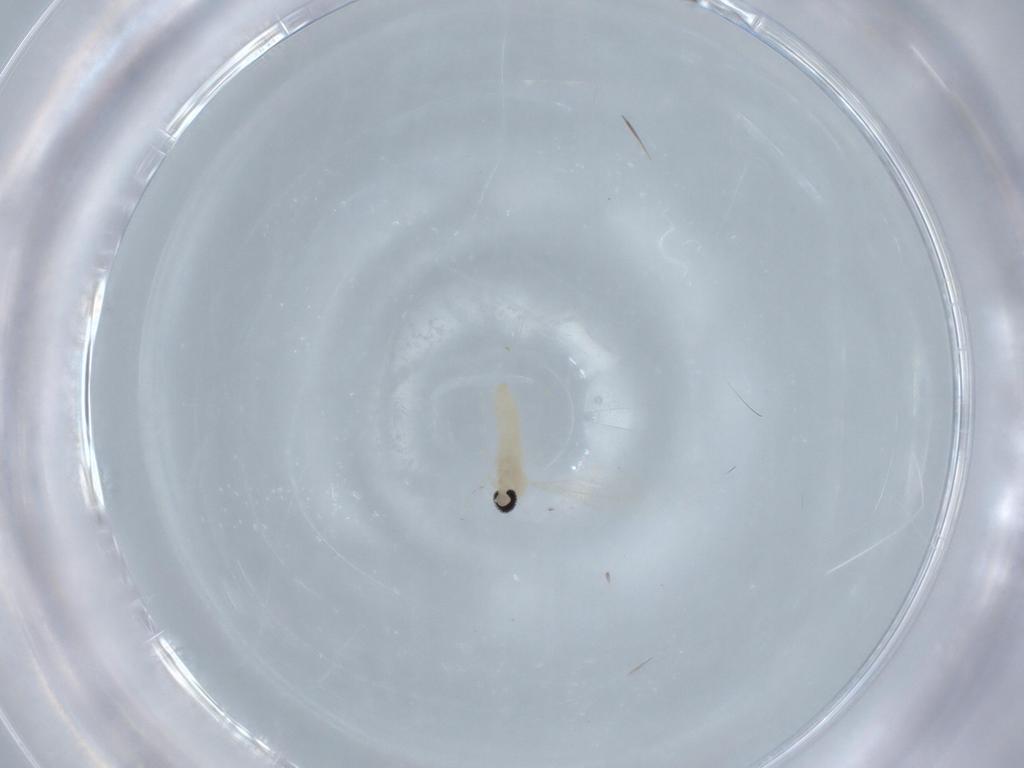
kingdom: Animalia
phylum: Arthropoda
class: Insecta
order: Diptera
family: Cecidomyiidae
